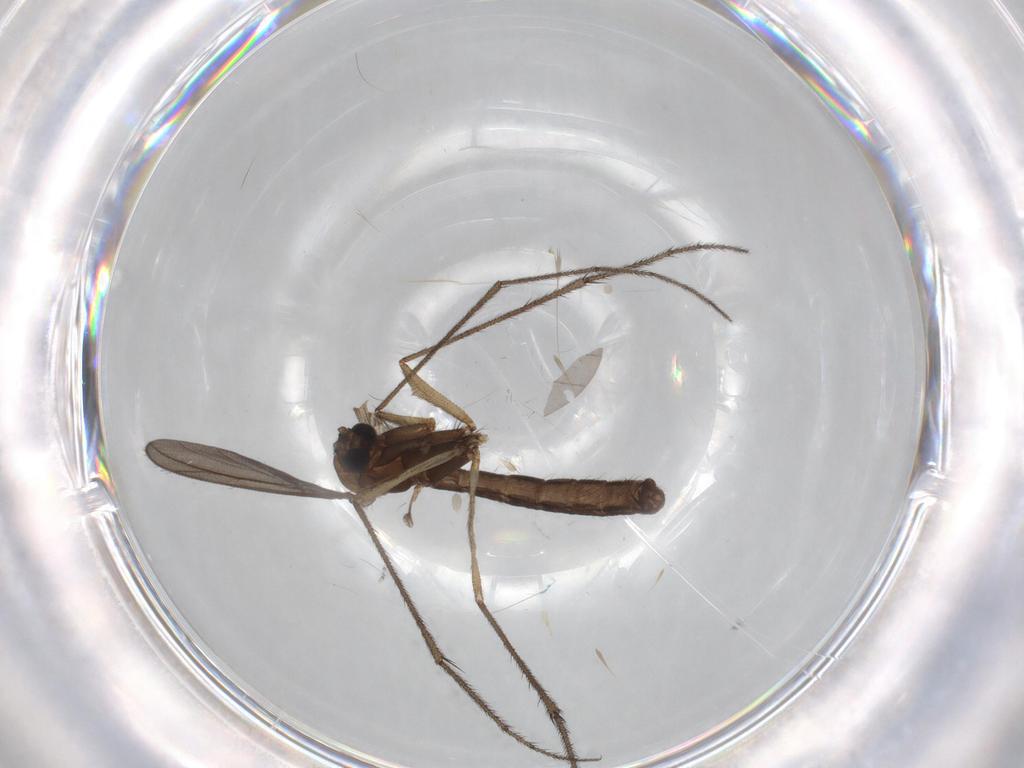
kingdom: Animalia
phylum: Arthropoda
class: Insecta
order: Diptera
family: Ditomyiidae
